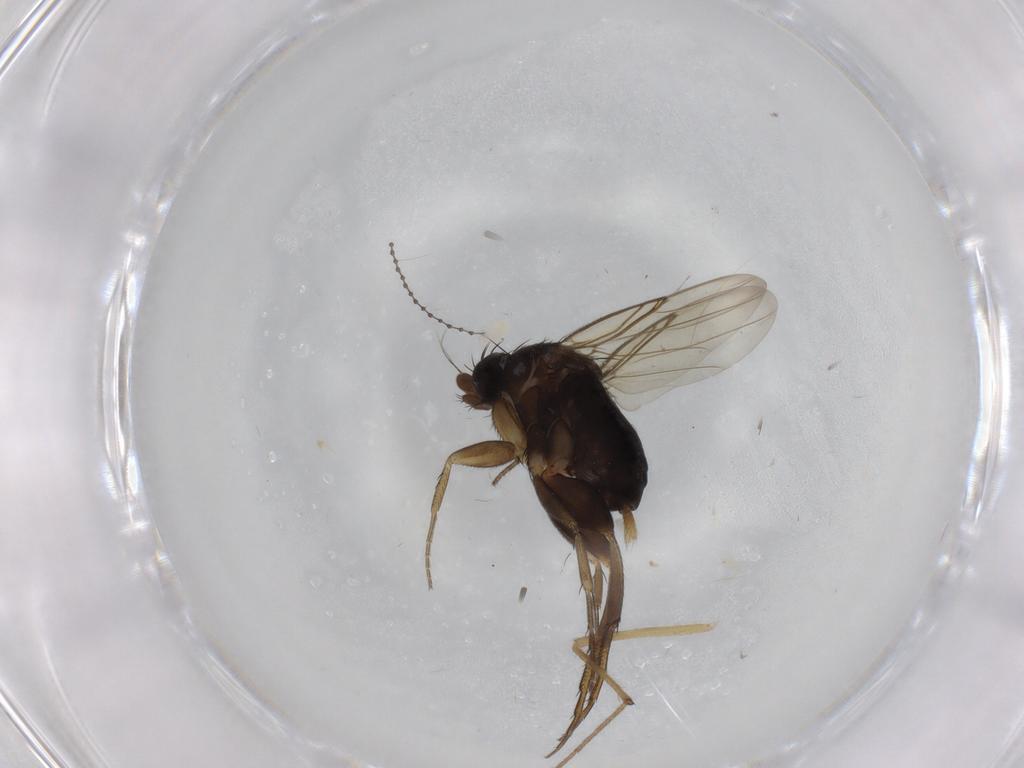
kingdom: Animalia
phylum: Arthropoda
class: Insecta
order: Diptera
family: Phoridae
